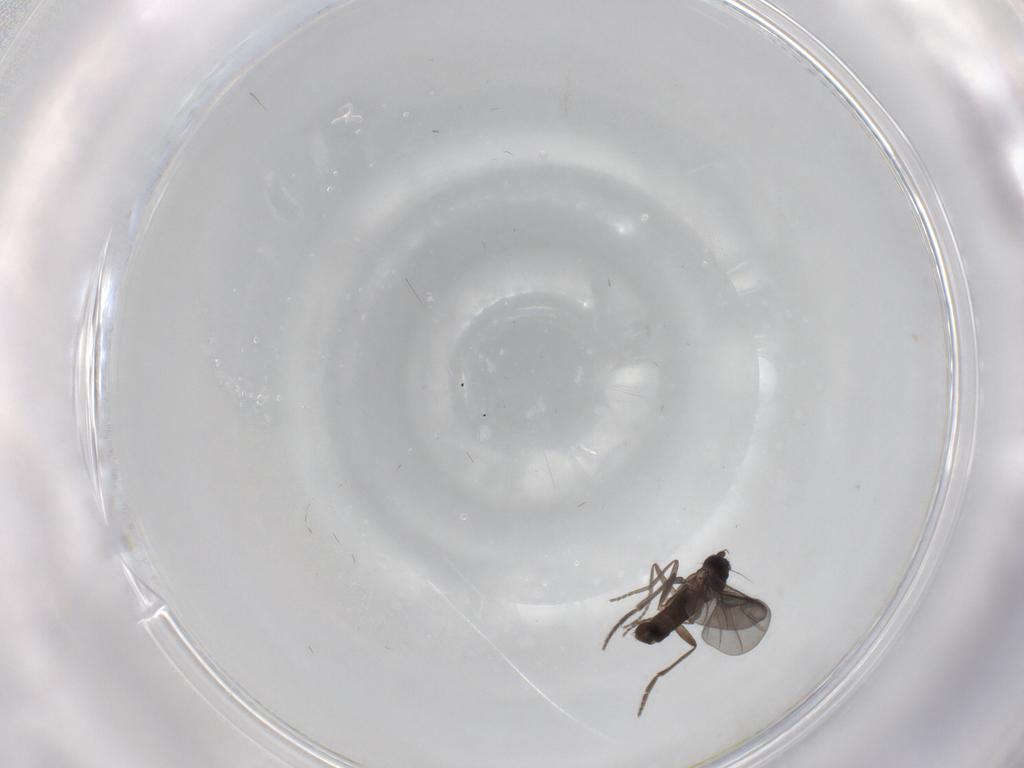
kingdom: Animalia
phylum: Arthropoda
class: Insecta
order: Diptera
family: Phoridae
